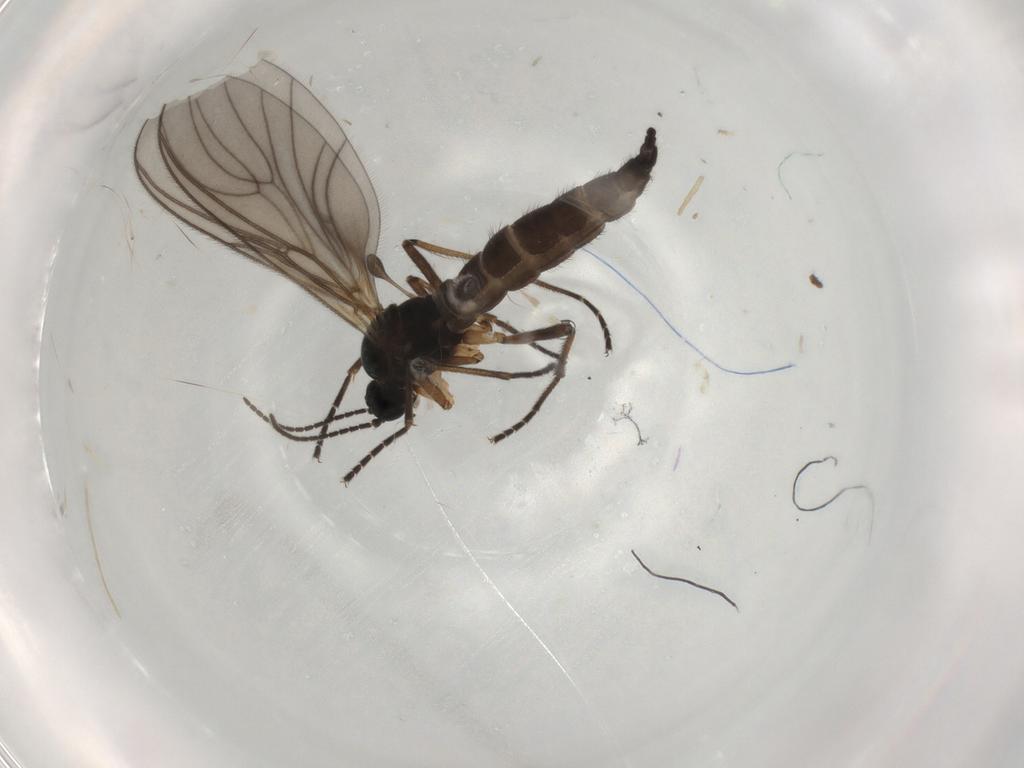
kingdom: Animalia
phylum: Arthropoda
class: Insecta
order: Diptera
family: Sciaridae
